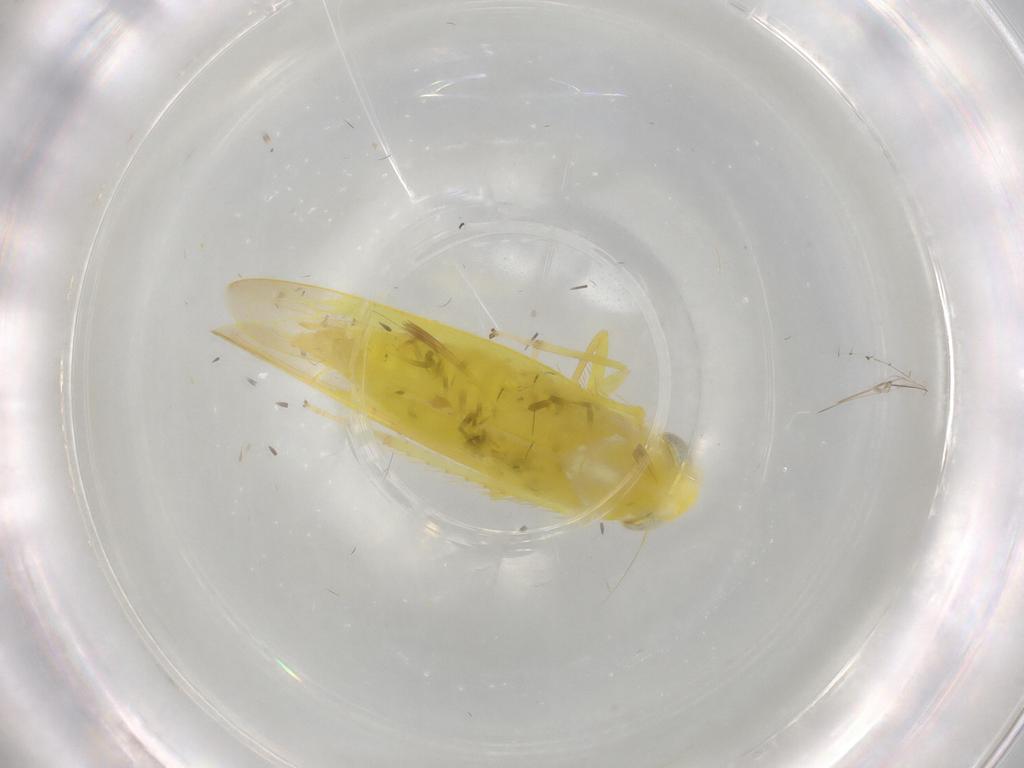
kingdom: Animalia
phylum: Arthropoda
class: Insecta
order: Hemiptera
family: Cicadellidae
